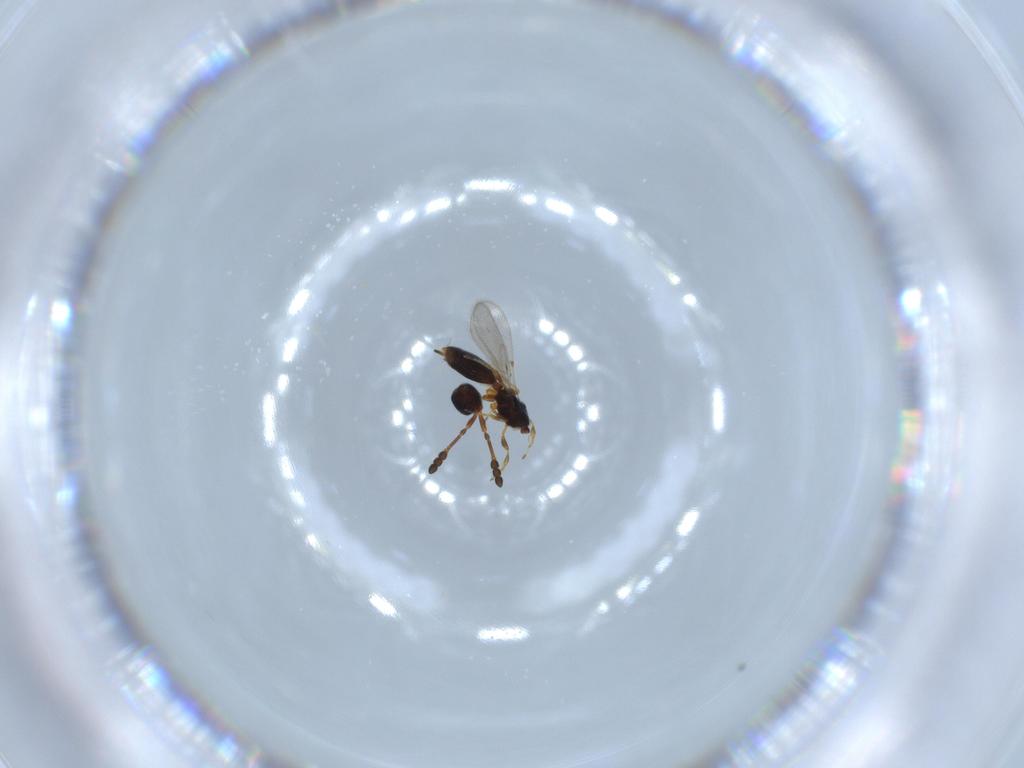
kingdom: Animalia
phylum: Arthropoda
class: Insecta
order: Hymenoptera
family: Diapriidae
